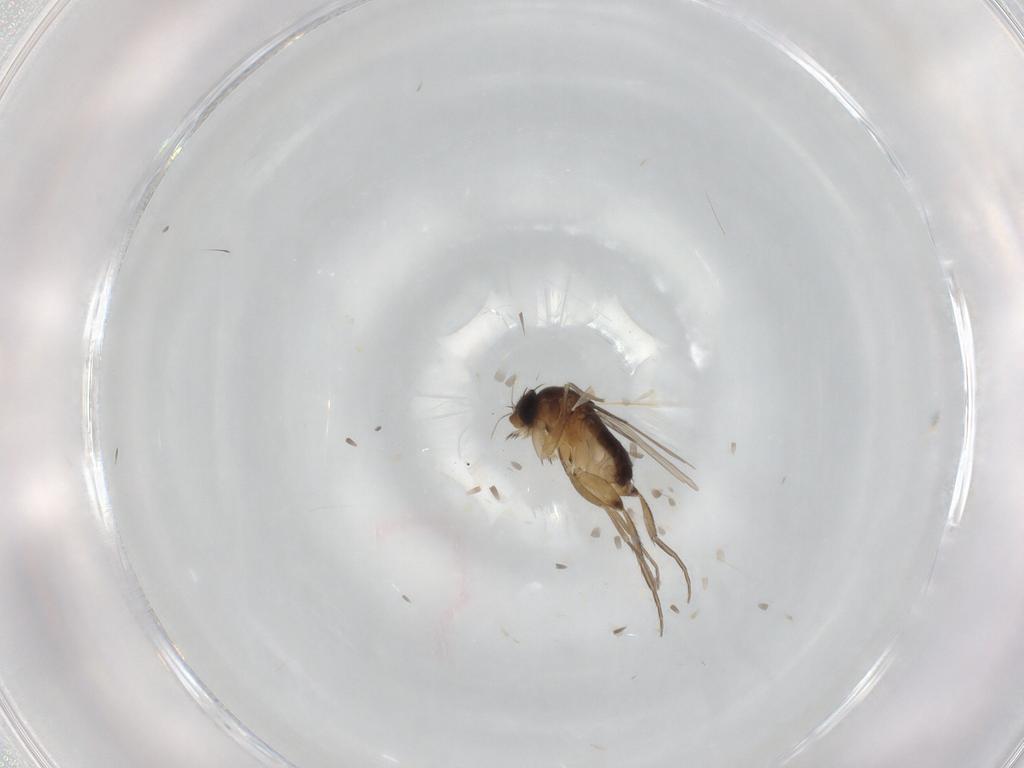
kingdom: Animalia
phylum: Arthropoda
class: Insecta
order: Diptera
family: Phoridae
